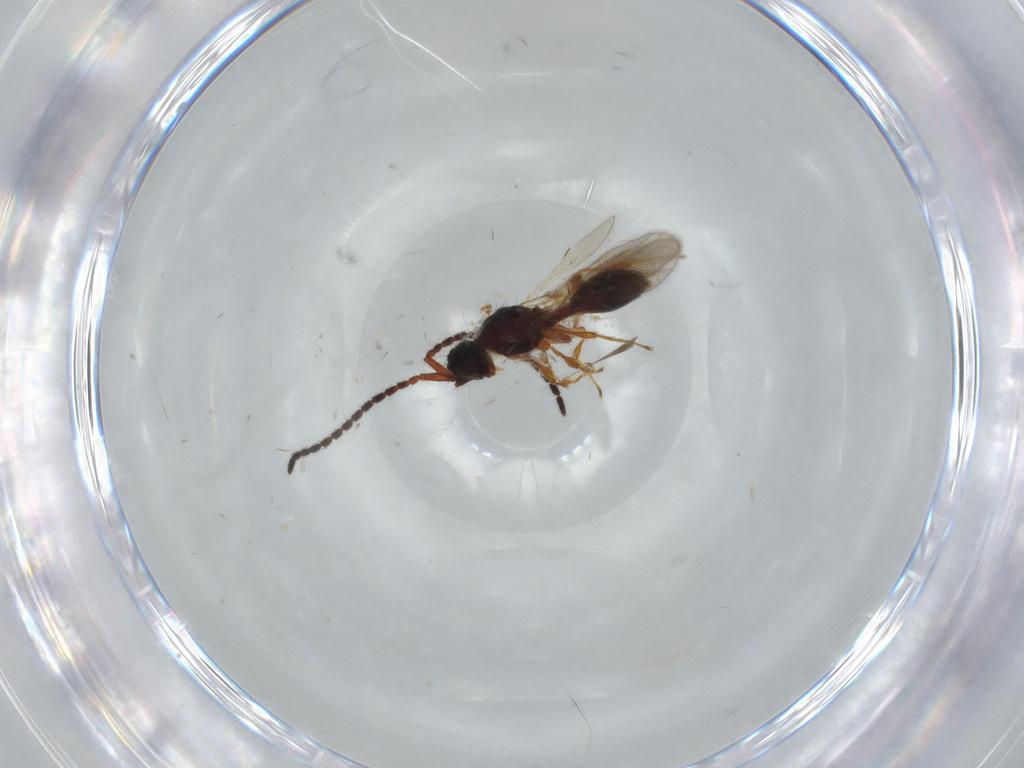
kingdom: Animalia
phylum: Arthropoda
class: Insecta
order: Hymenoptera
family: Diapriidae
